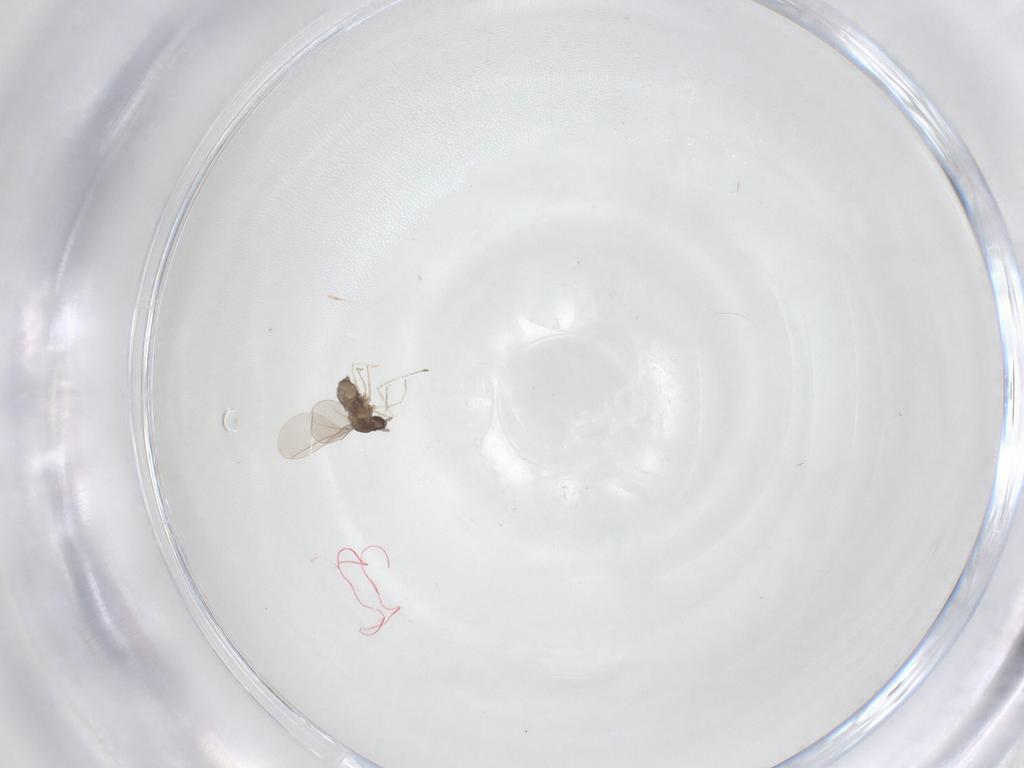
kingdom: Animalia
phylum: Arthropoda
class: Insecta
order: Diptera
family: Cecidomyiidae
